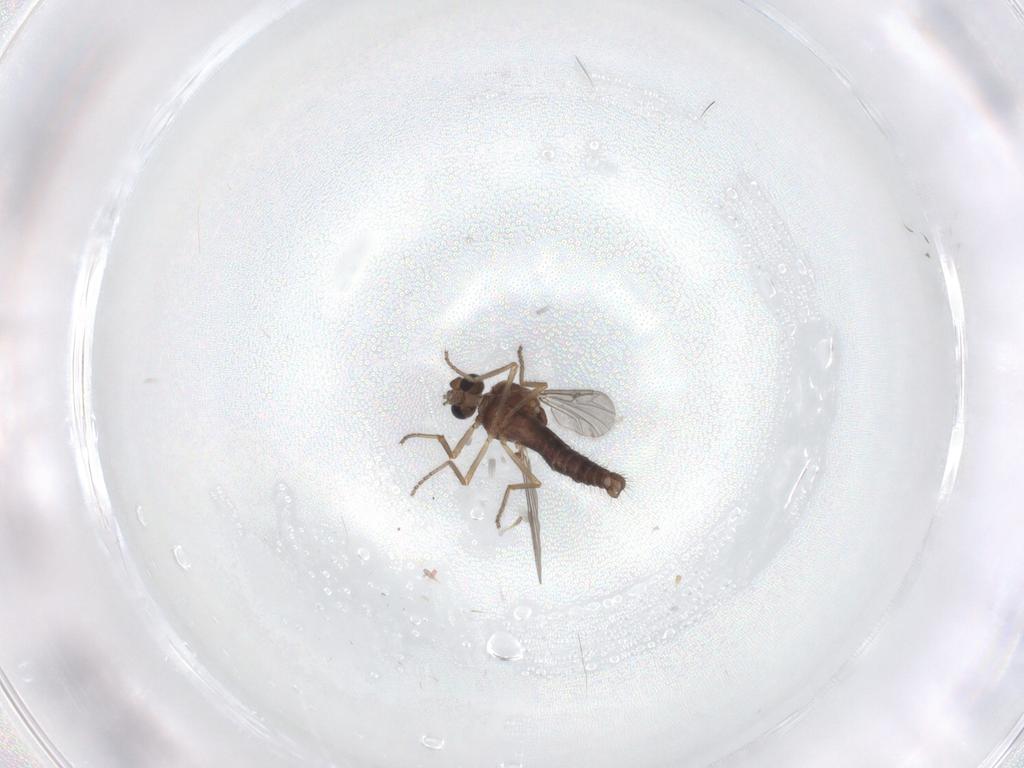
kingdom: Animalia
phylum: Arthropoda
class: Insecta
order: Diptera
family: Ceratopogonidae
